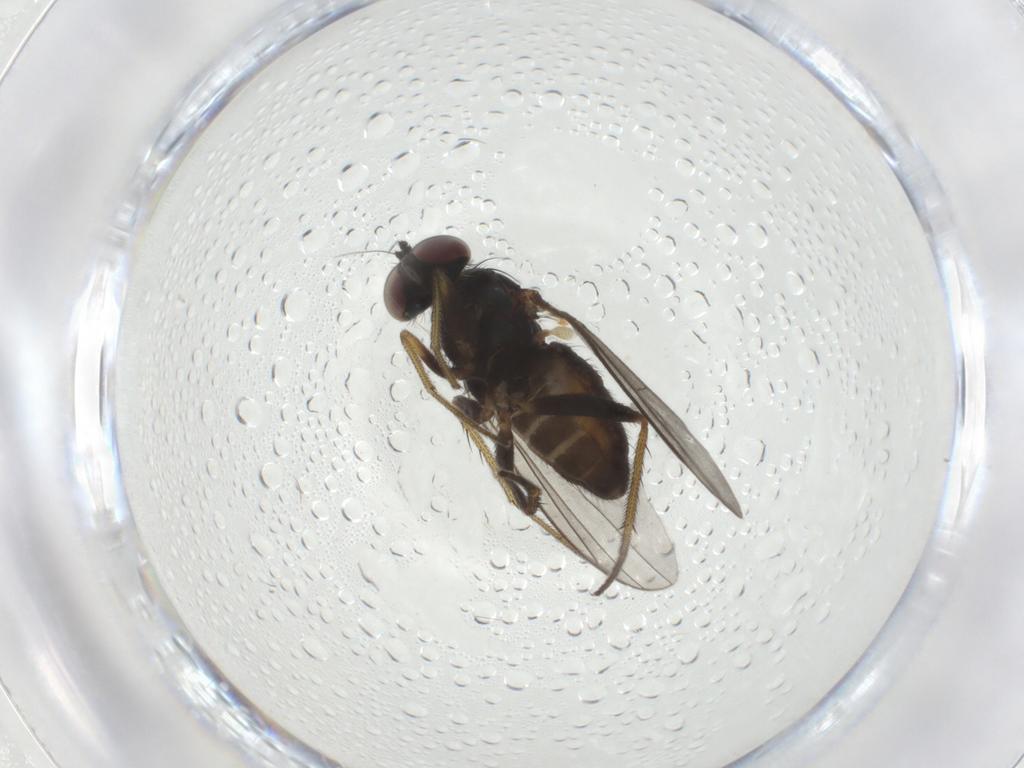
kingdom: Animalia
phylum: Arthropoda
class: Insecta
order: Diptera
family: Dolichopodidae
